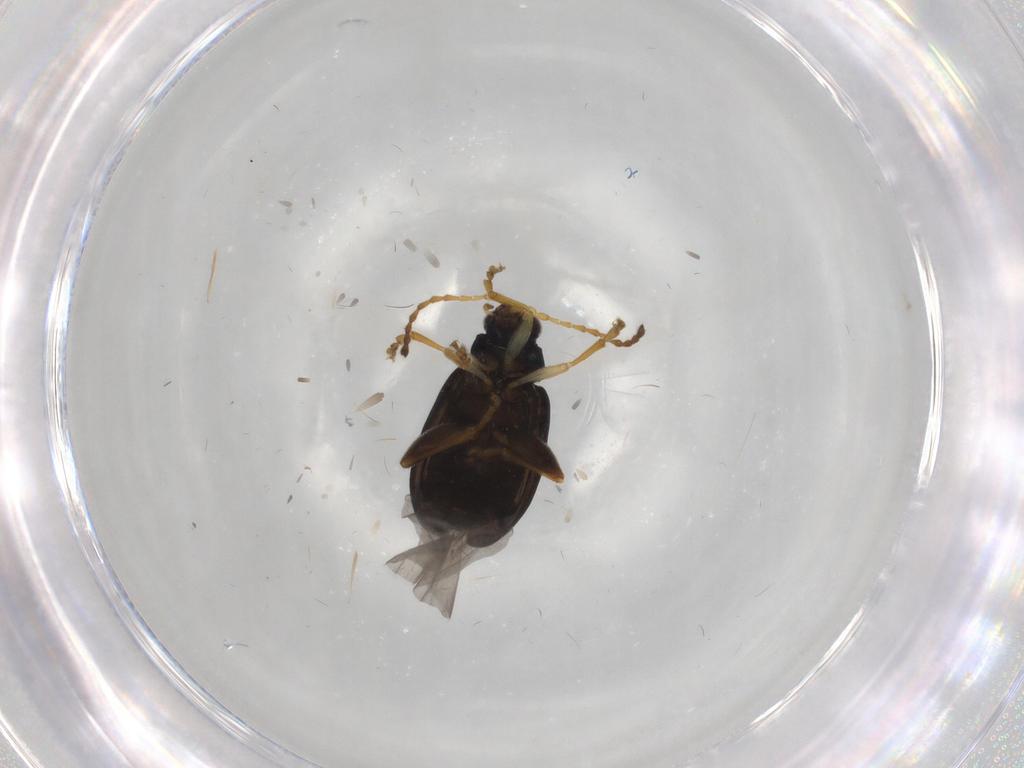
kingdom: Animalia
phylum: Arthropoda
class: Insecta
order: Coleoptera
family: Chrysomelidae
